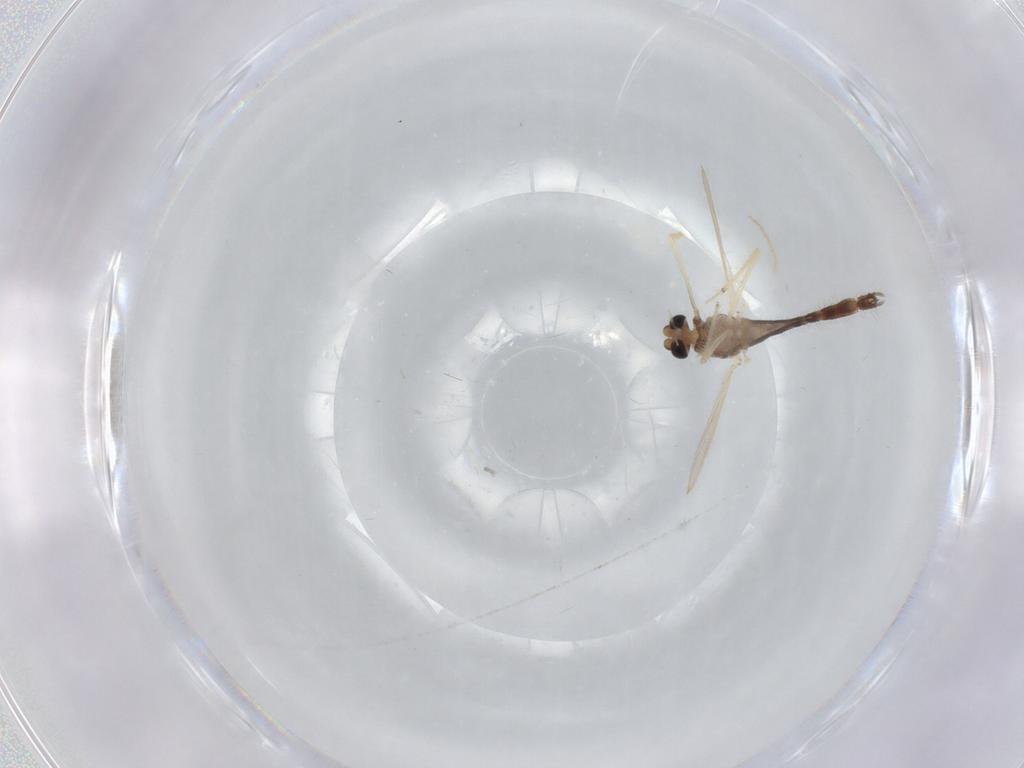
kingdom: Animalia
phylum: Arthropoda
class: Insecta
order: Diptera
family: Chironomidae
